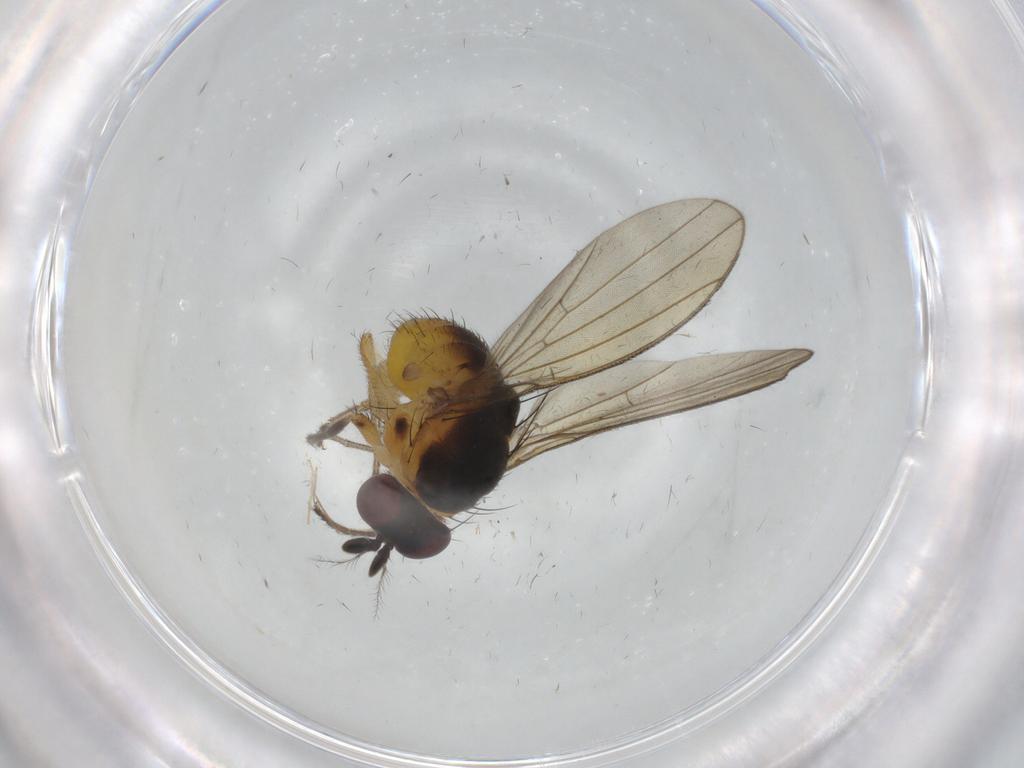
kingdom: Animalia
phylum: Arthropoda
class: Insecta
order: Diptera
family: Lauxaniidae
